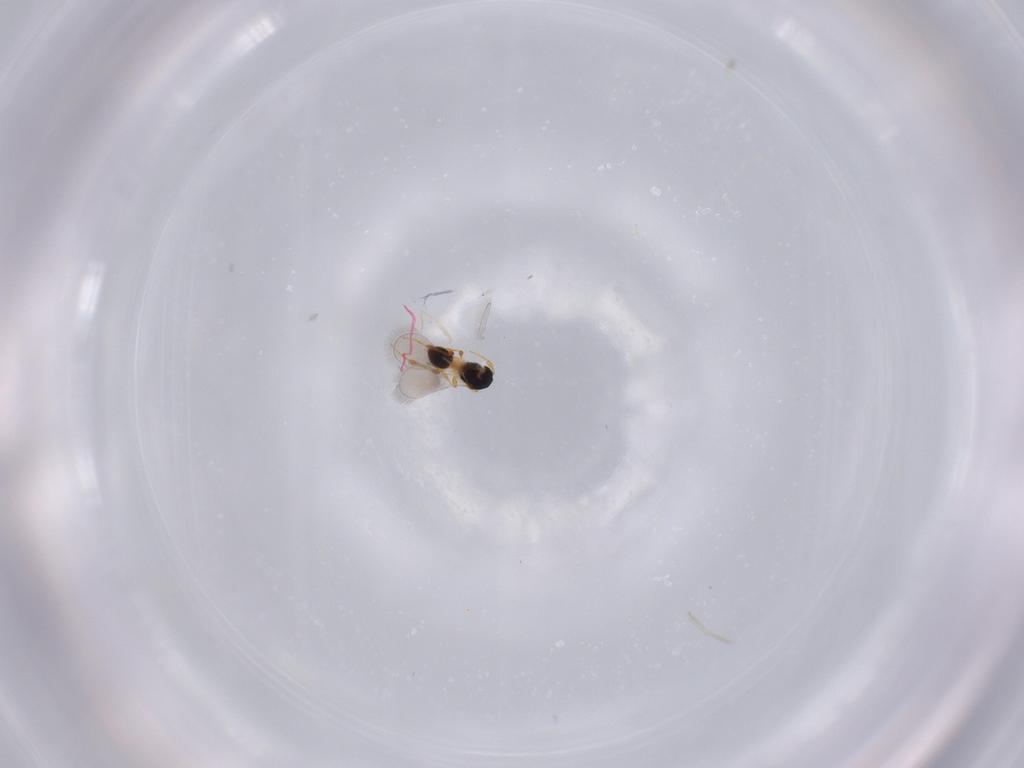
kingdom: Animalia
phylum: Arthropoda
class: Insecta
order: Hymenoptera
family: Platygastridae
